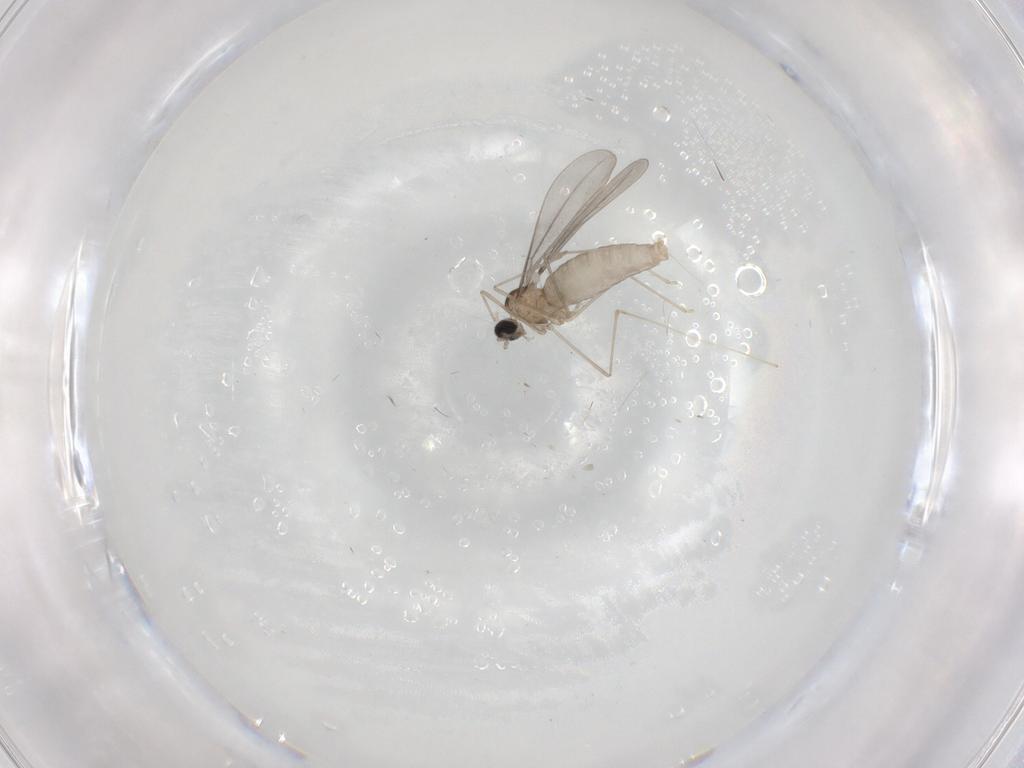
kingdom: Animalia
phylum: Arthropoda
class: Insecta
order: Diptera
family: Cecidomyiidae
